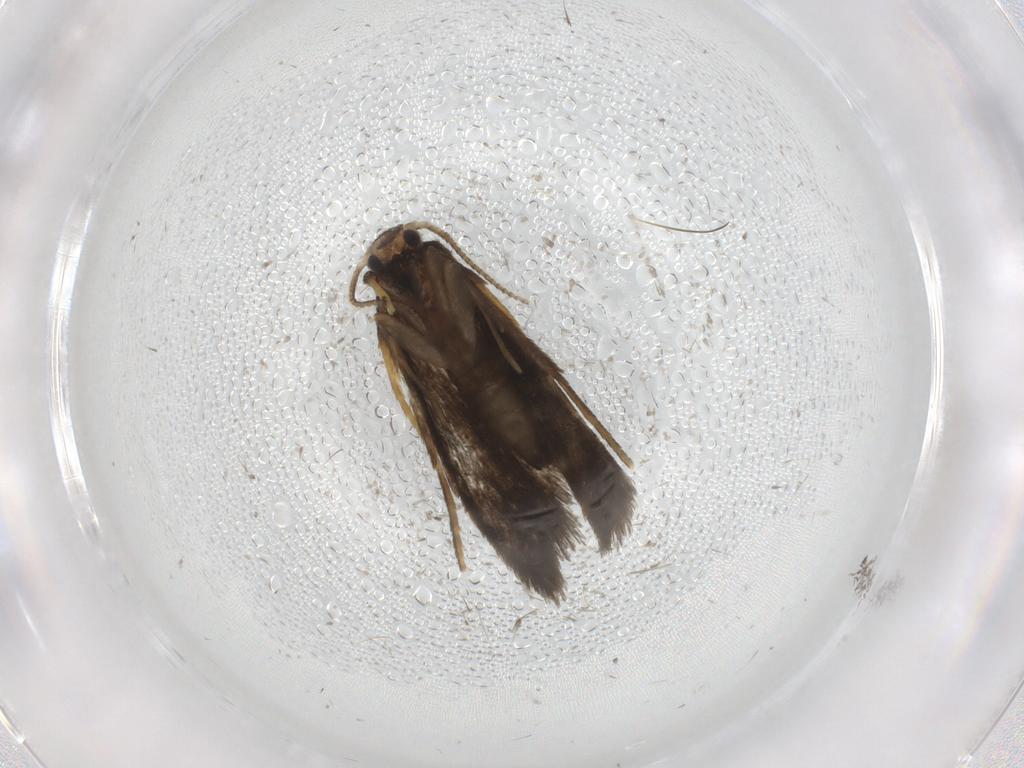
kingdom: Animalia
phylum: Arthropoda
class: Insecta
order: Lepidoptera
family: Psychidae
